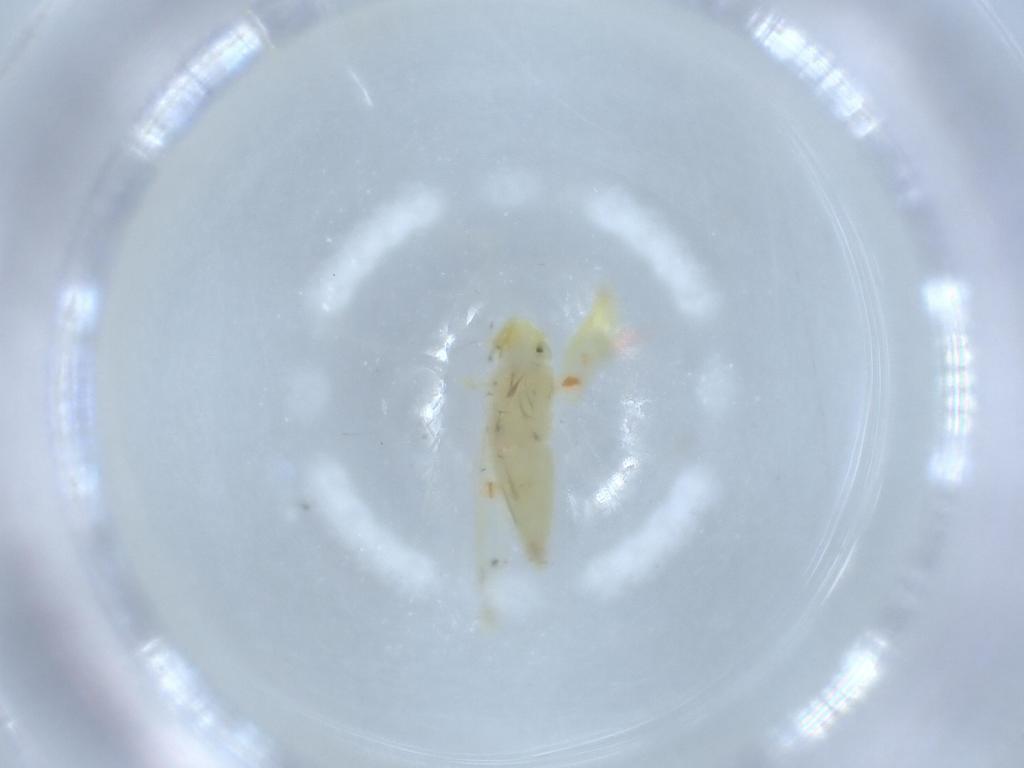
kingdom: Animalia
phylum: Arthropoda
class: Insecta
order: Hemiptera
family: Cicadellidae
